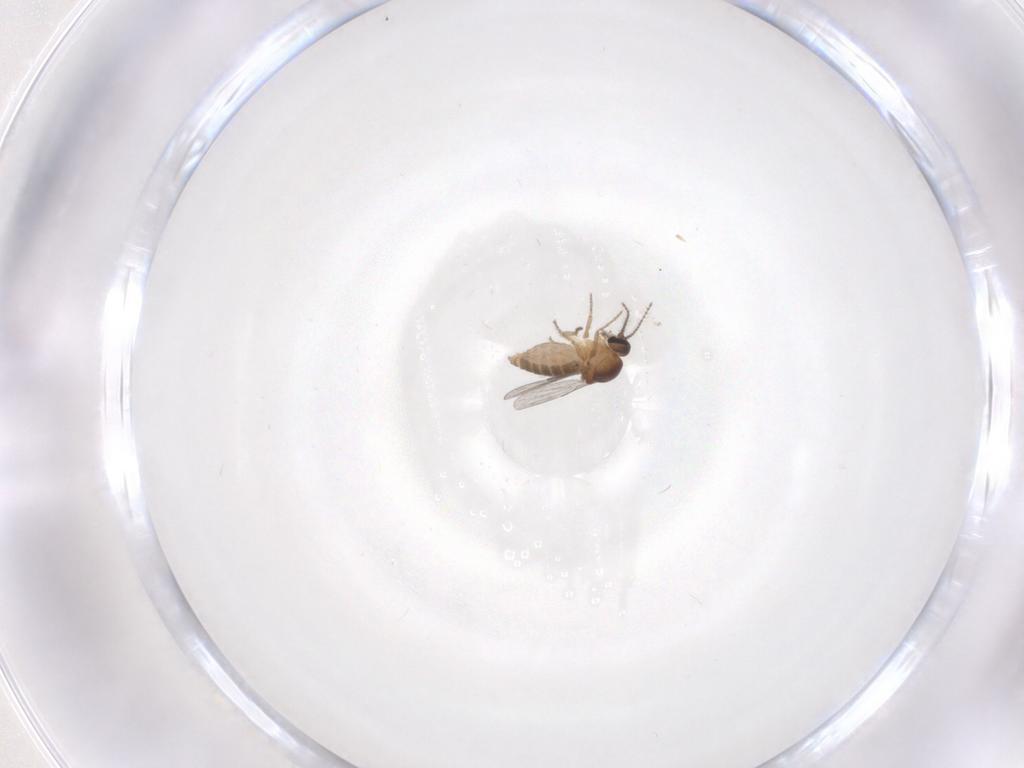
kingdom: Animalia
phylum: Arthropoda
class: Insecta
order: Diptera
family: Ceratopogonidae
